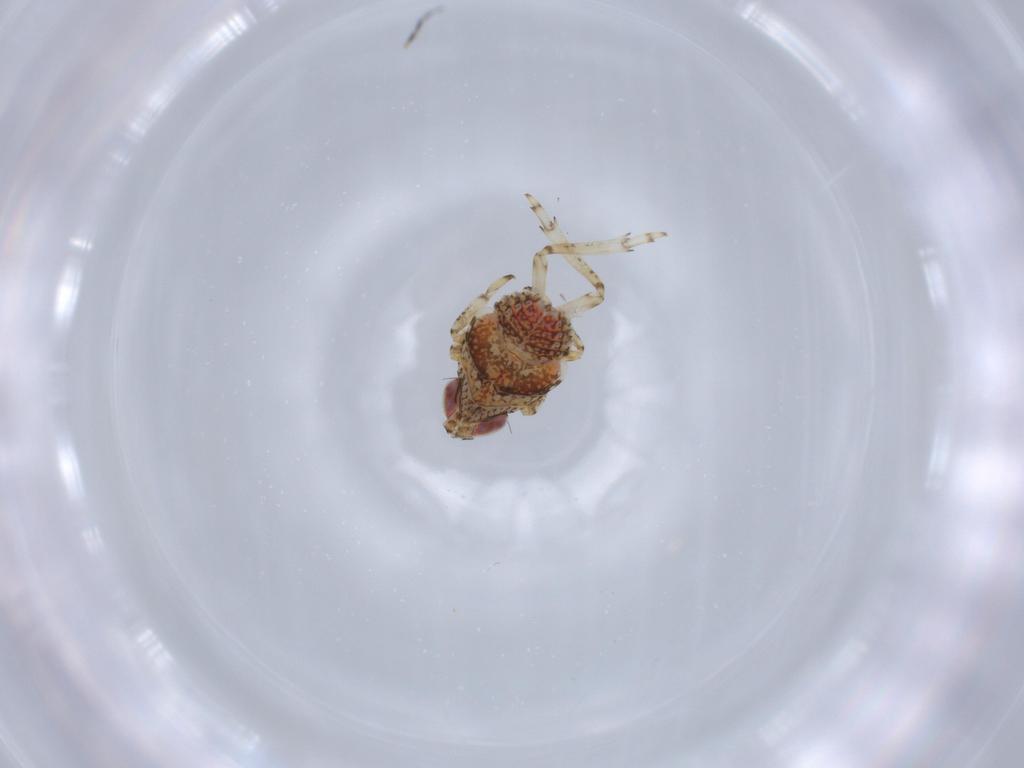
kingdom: Animalia
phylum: Arthropoda
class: Insecta
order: Hemiptera
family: Issidae
